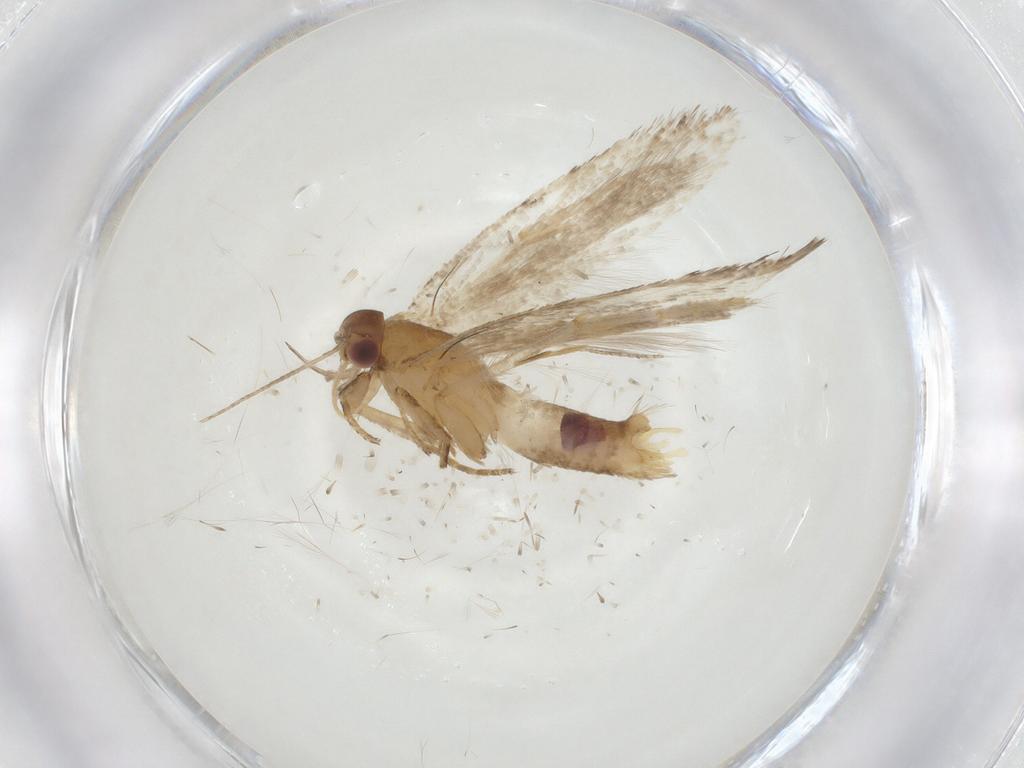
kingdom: Animalia
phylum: Arthropoda
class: Insecta
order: Lepidoptera
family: Gelechiidae
